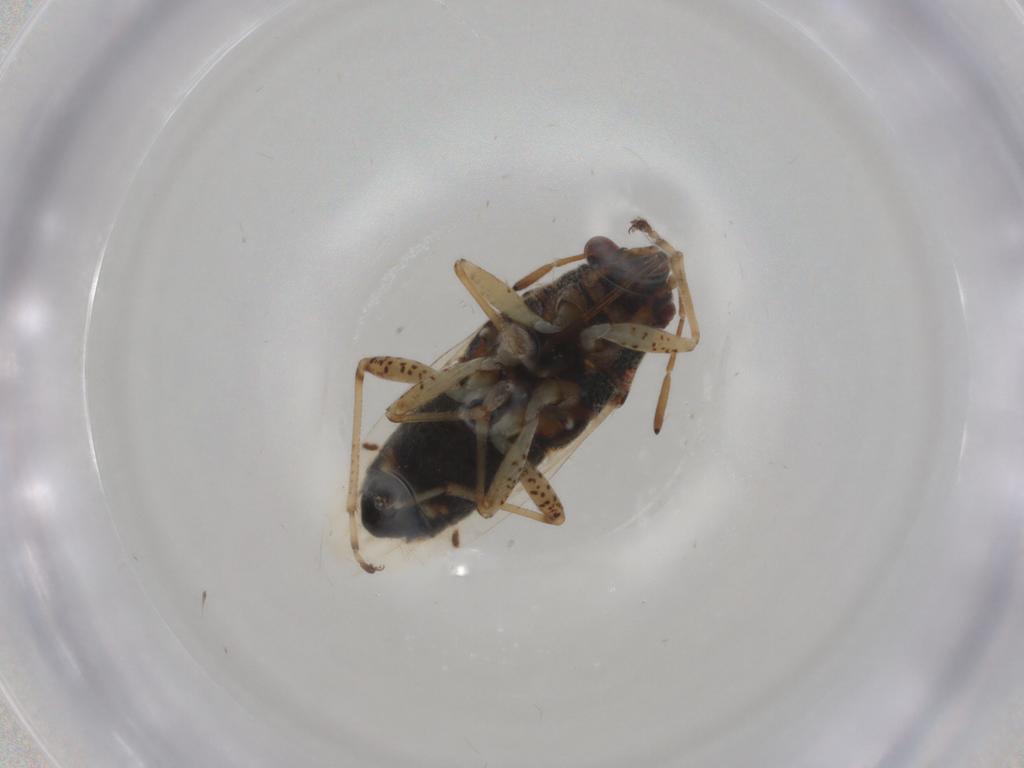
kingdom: Animalia
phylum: Arthropoda
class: Insecta
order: Hemiptera
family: Lygaeidae
